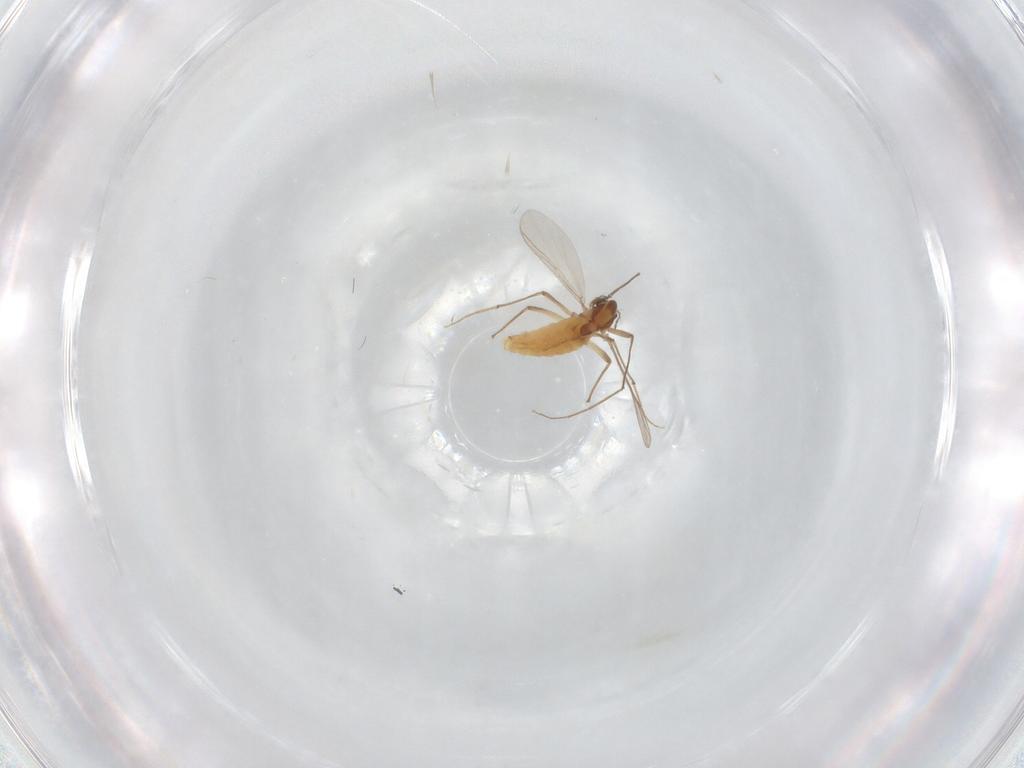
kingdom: Animalia
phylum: Arthropoda
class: Insecta
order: Diptera
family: Chironomidae
